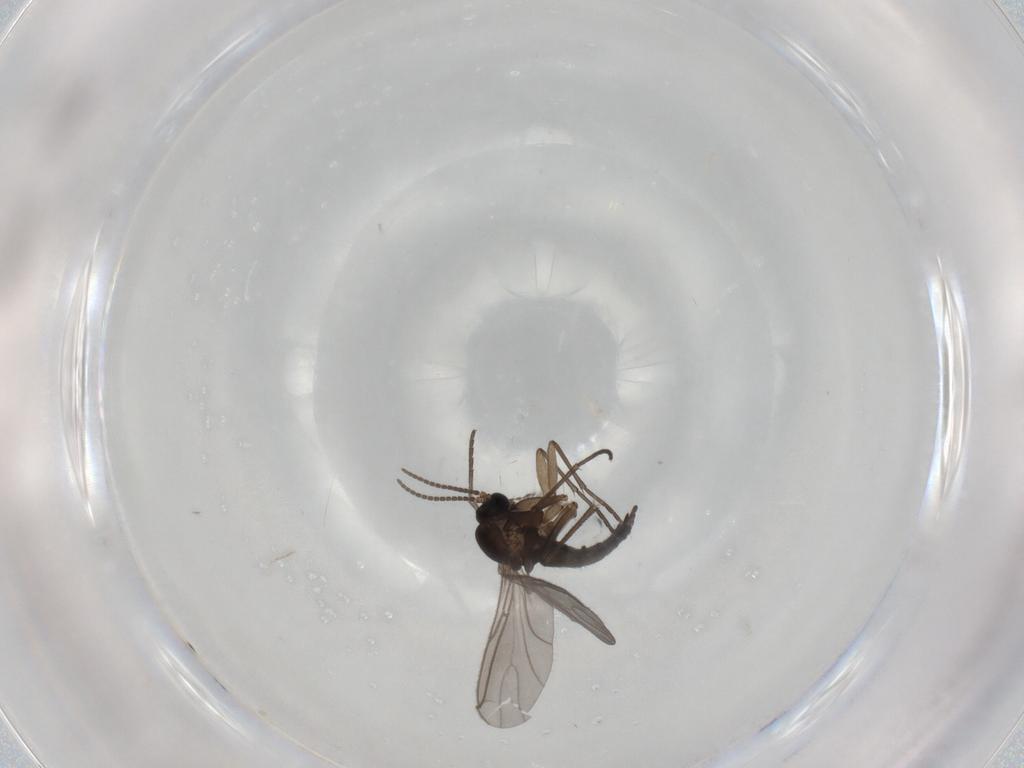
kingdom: Animalia
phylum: Arthropoda
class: Insecta
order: Diptera
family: Sciaridae
